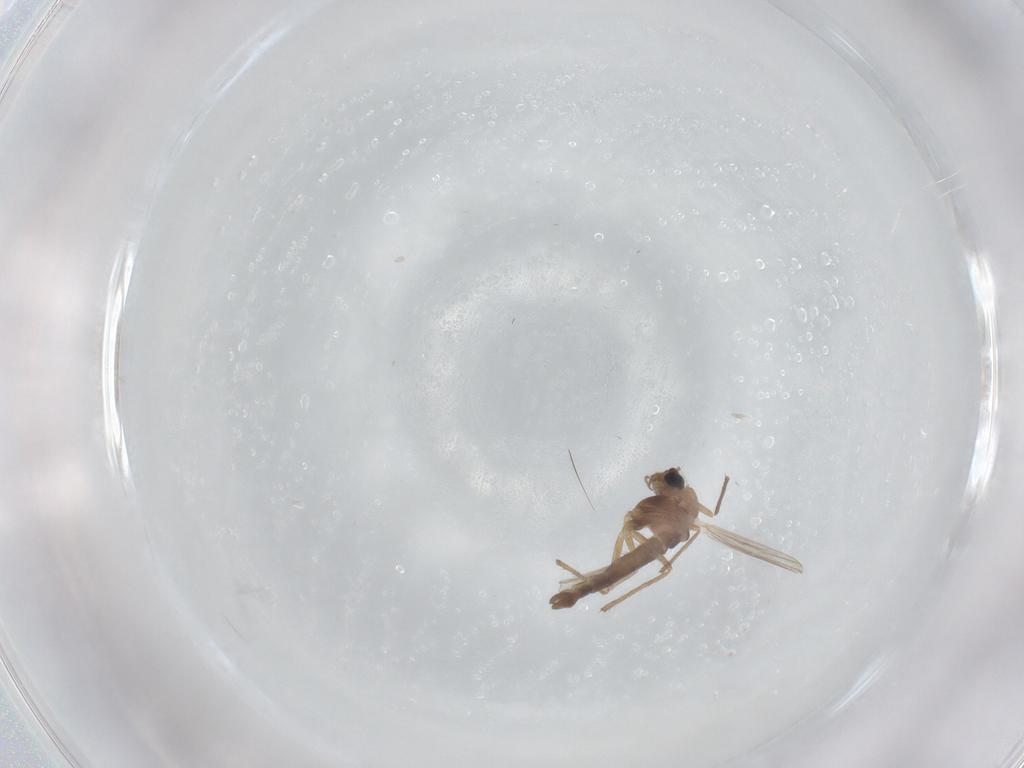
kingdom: Animalia
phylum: Arthropoda
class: Insecta
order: Diptera
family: Chironomidae
